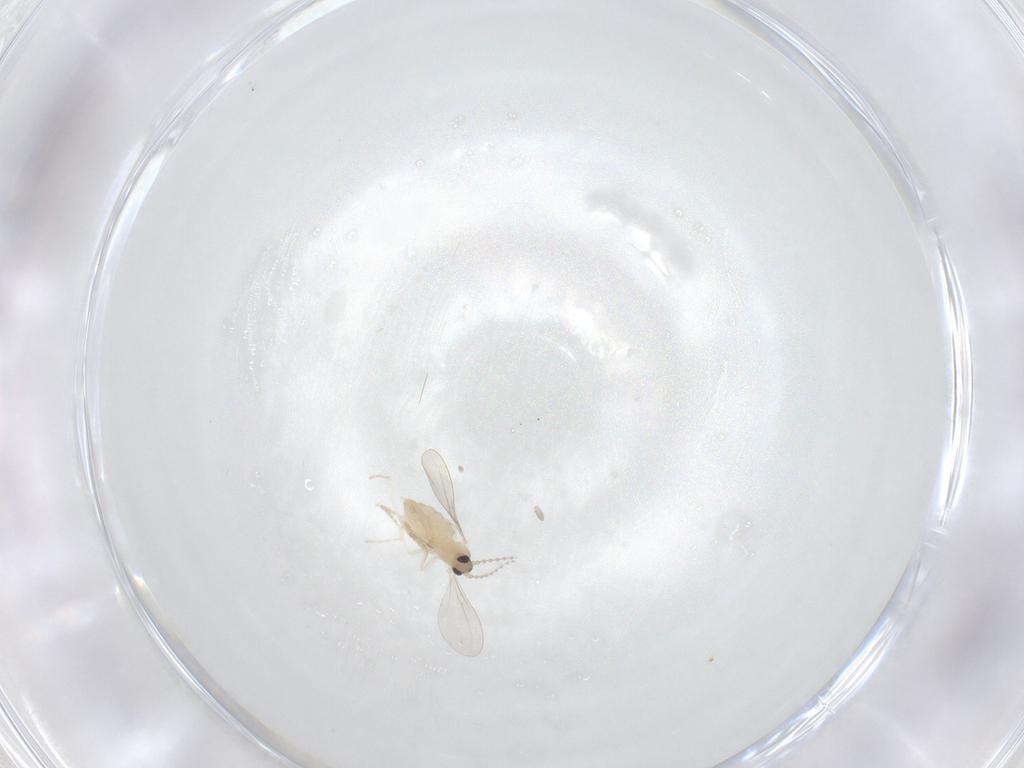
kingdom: Animalia
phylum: Arthropoda
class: Insecta
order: Diptera
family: Cecidomyiidae
